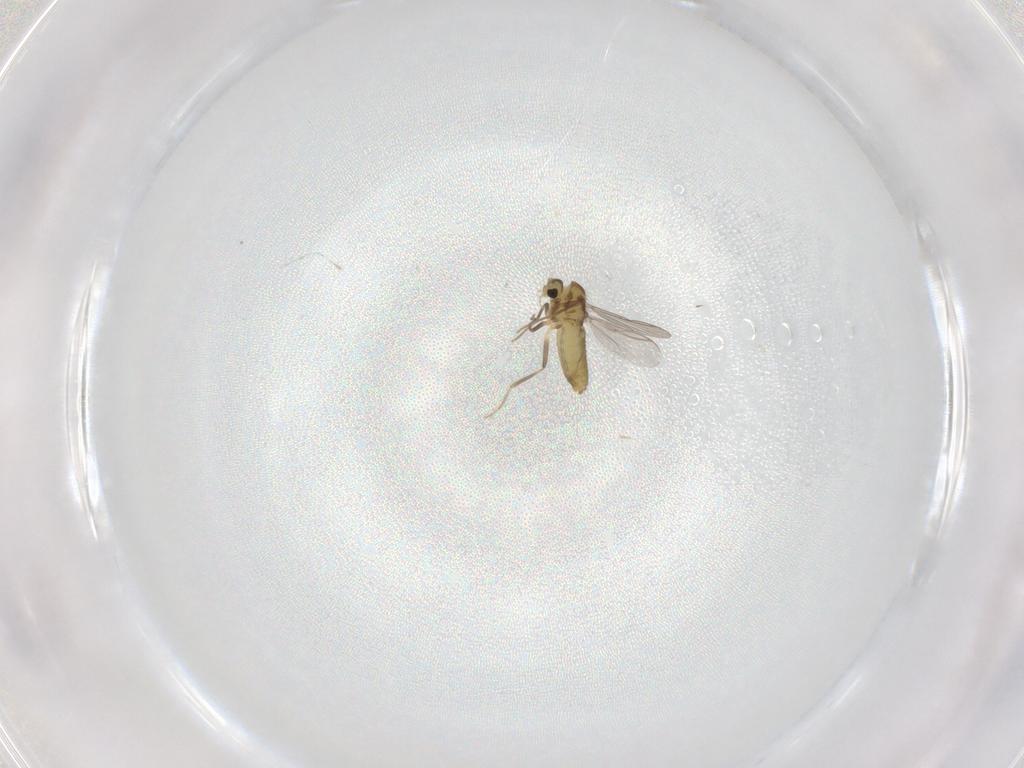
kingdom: Animalia
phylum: Arthropoda
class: Insecta
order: Diptera
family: Chironomidae
